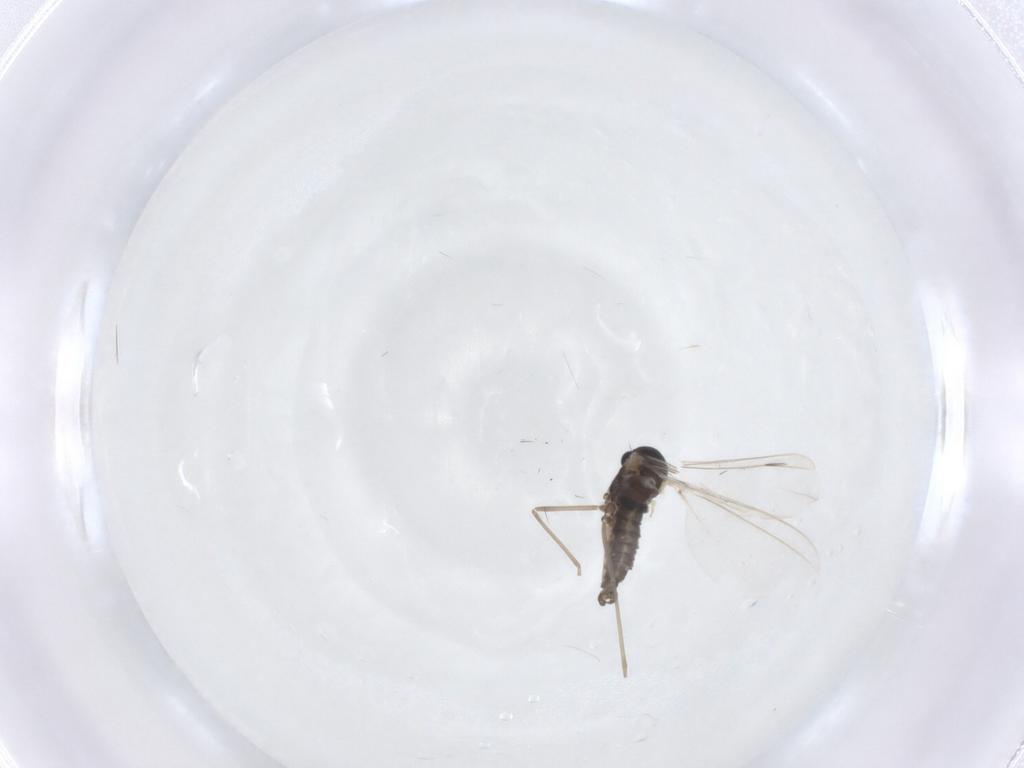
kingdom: Animalia
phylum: Arthropoda
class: Insecta
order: Diptera
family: Cecidomyiidae
